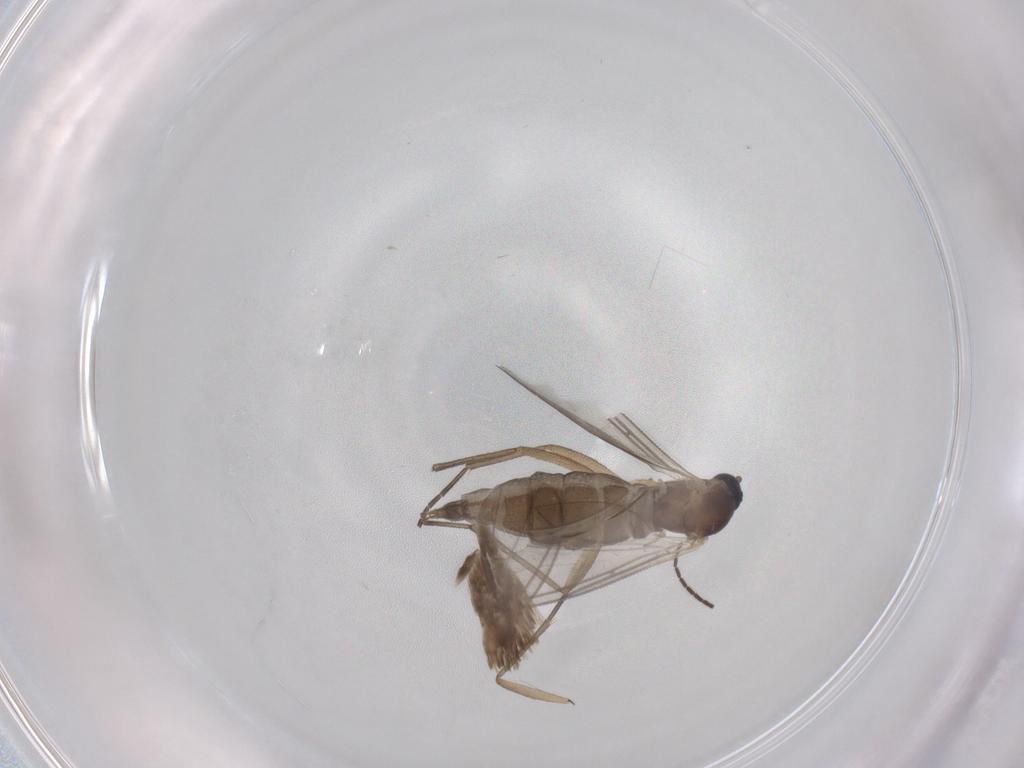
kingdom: Animalia
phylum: Arthropoda
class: Insecta
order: Diptera
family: Sciaridae
